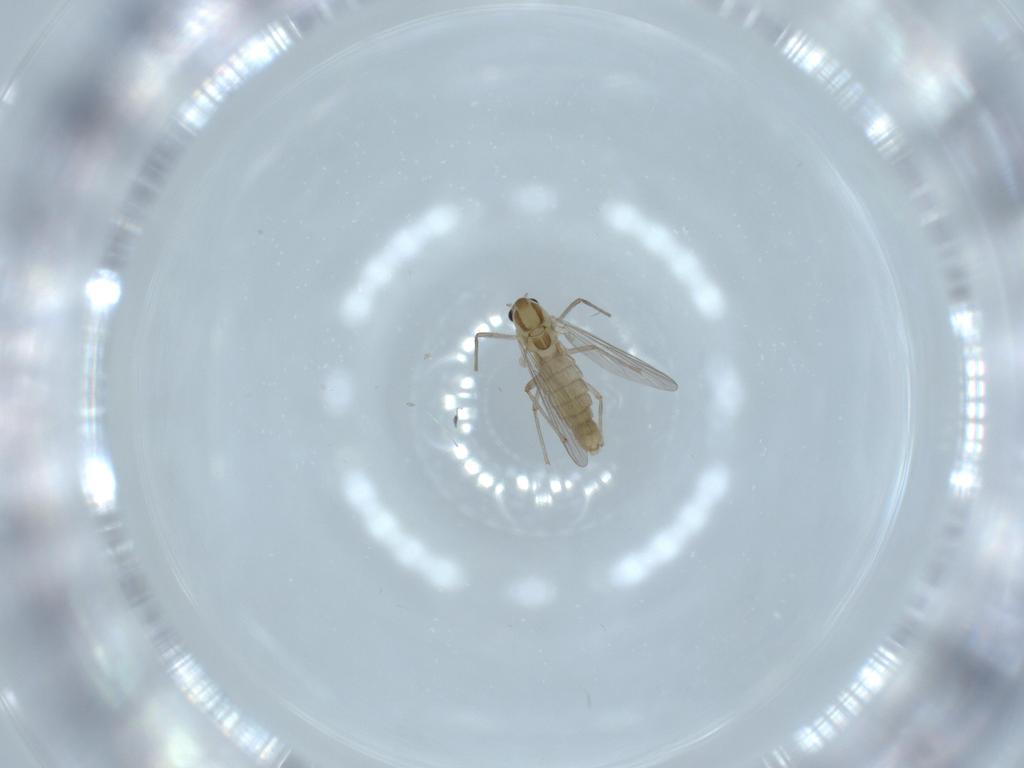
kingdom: Animalia
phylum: Arthropoda
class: Insecta
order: Diptera
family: Chironomidae
